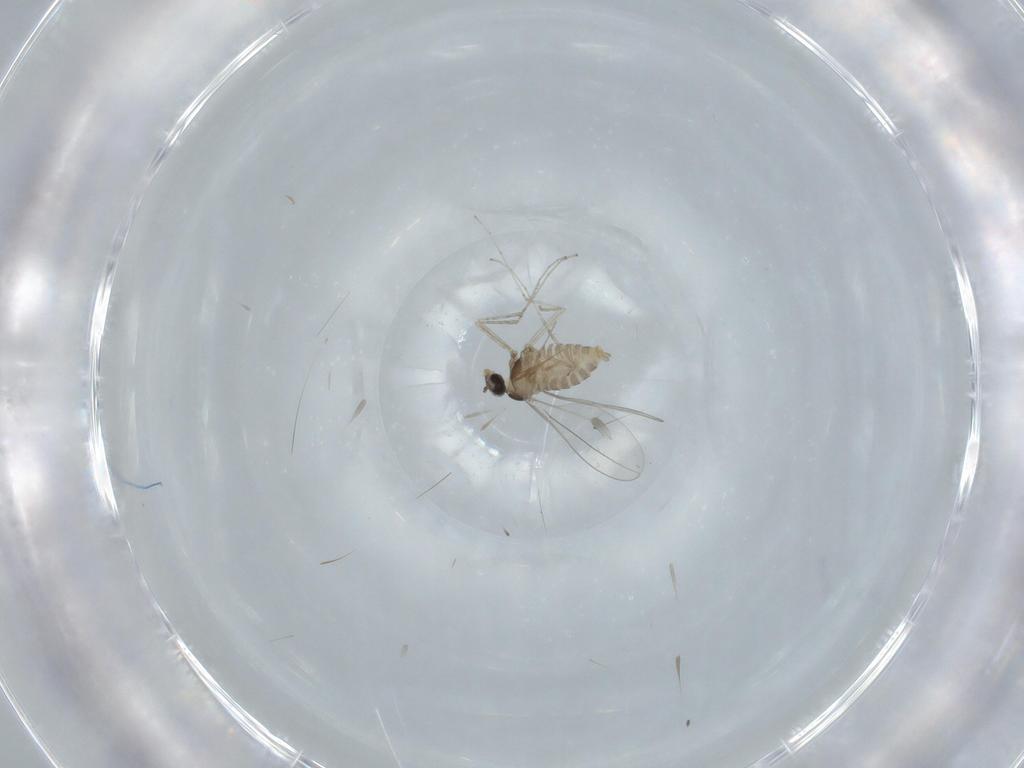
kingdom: Animalia
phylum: Arthropoda
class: Insecta
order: Diptera
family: Cecidomyiidae
